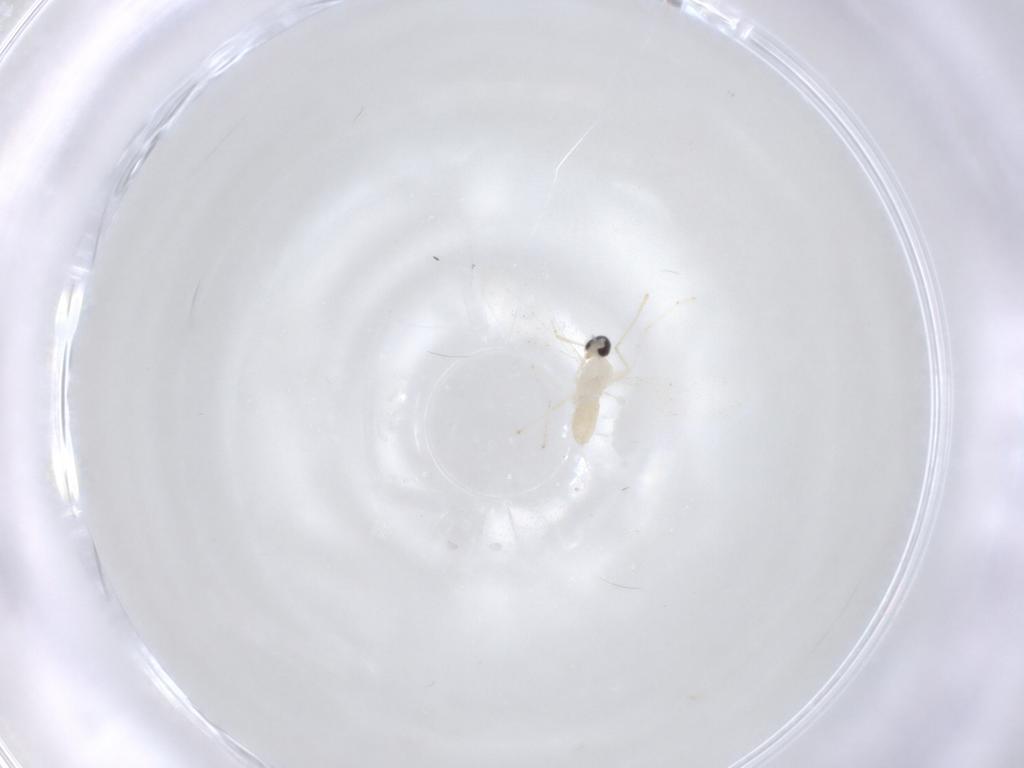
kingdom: Animalia
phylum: Arthropoda
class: Insecta
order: Diptera
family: Cecidomyiidae
